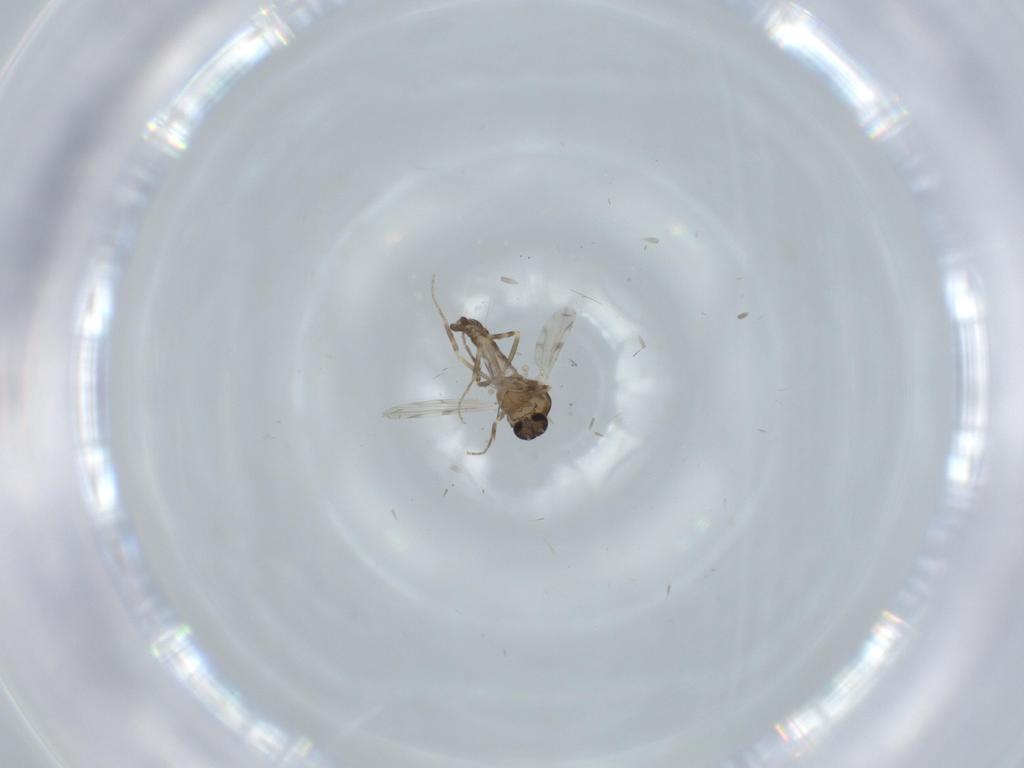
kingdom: Animalia
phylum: Arthropoda
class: Insecta
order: Diptera
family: Ceratopogonidae
